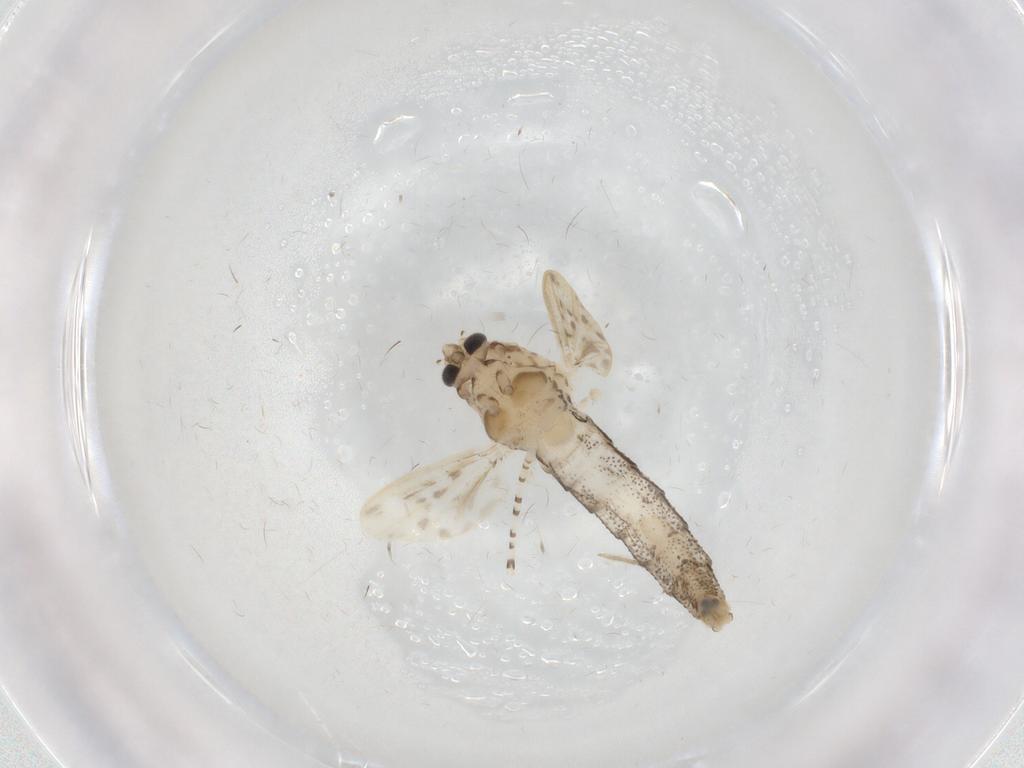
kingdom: Animalia
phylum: Arthropoda
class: Insecta
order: Diptera
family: Chaoboridae
